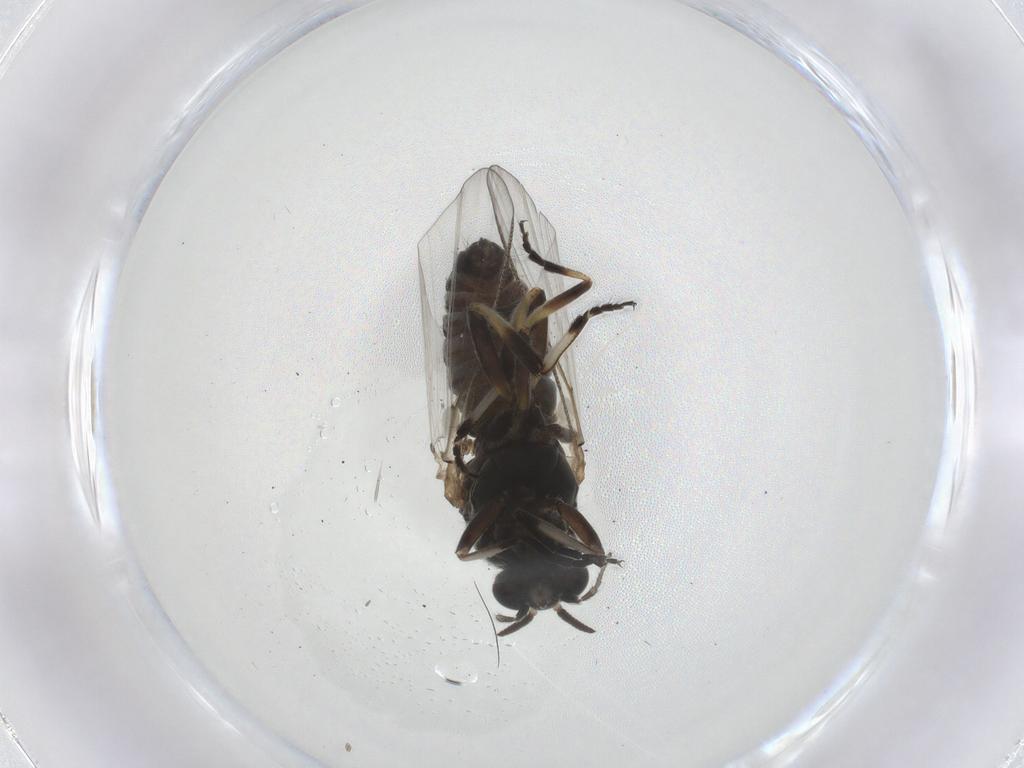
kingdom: Animalia
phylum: Arthropoda
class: Insecta
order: Diptera
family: Simuliidae
